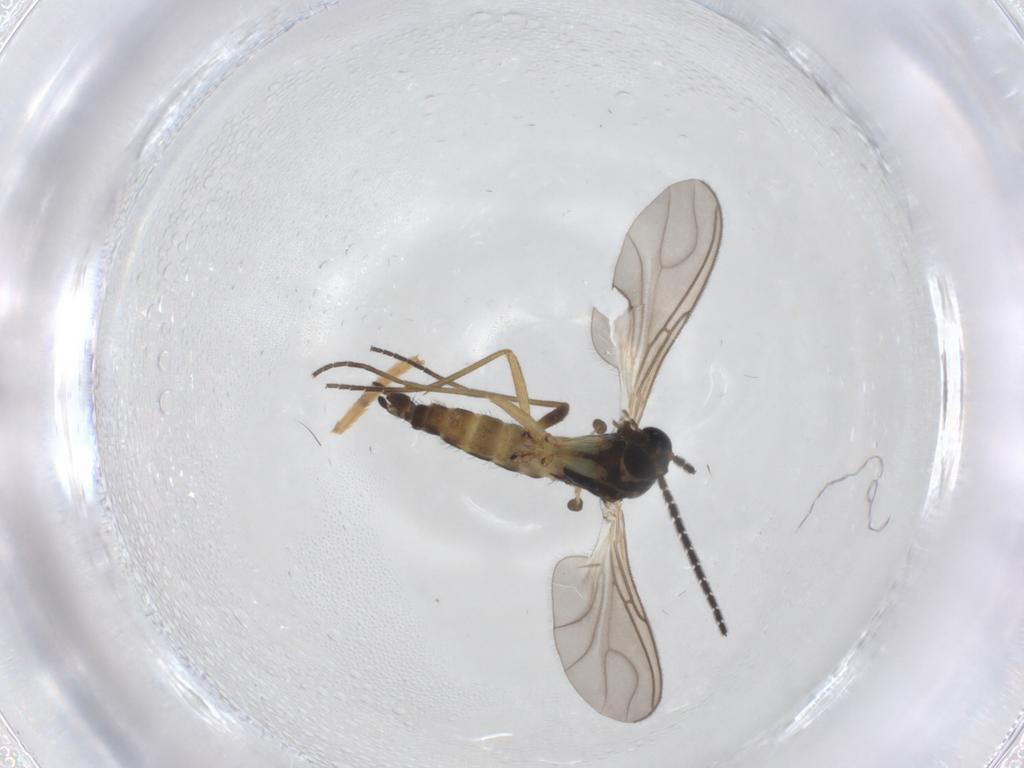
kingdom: Animalia
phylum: Arthropoda
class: Insecta
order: Diptera
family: Sciaridae
